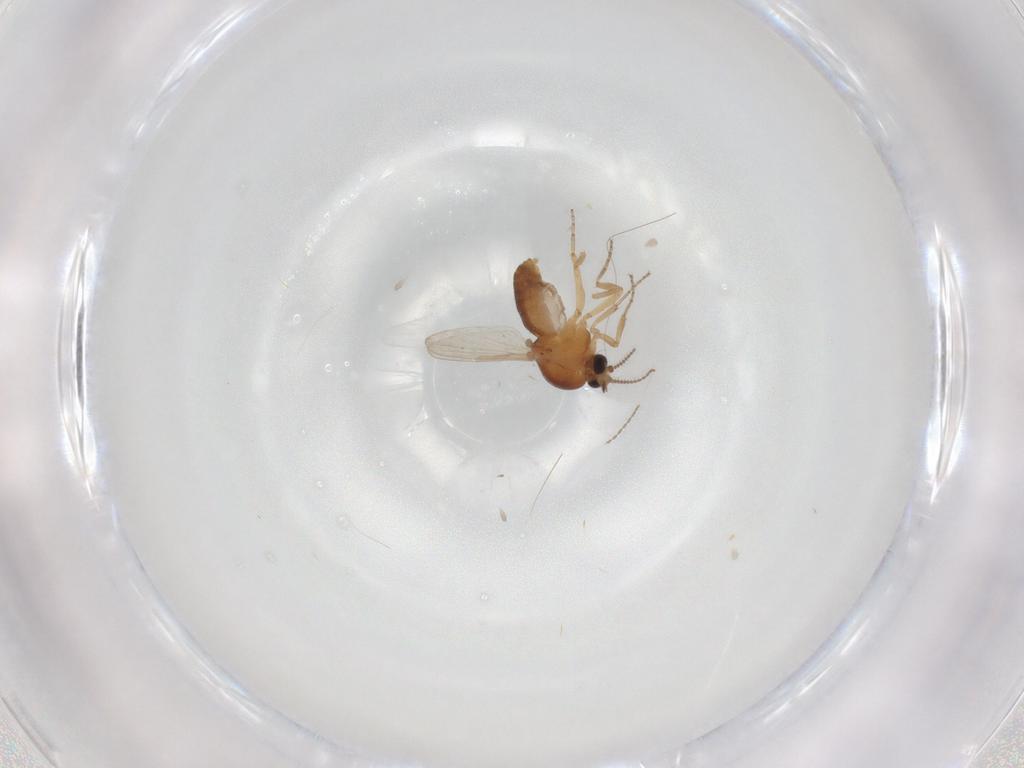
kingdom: Animalia
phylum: Arthropoda
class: Insecta
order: Diptera
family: Ceratopogonidae
